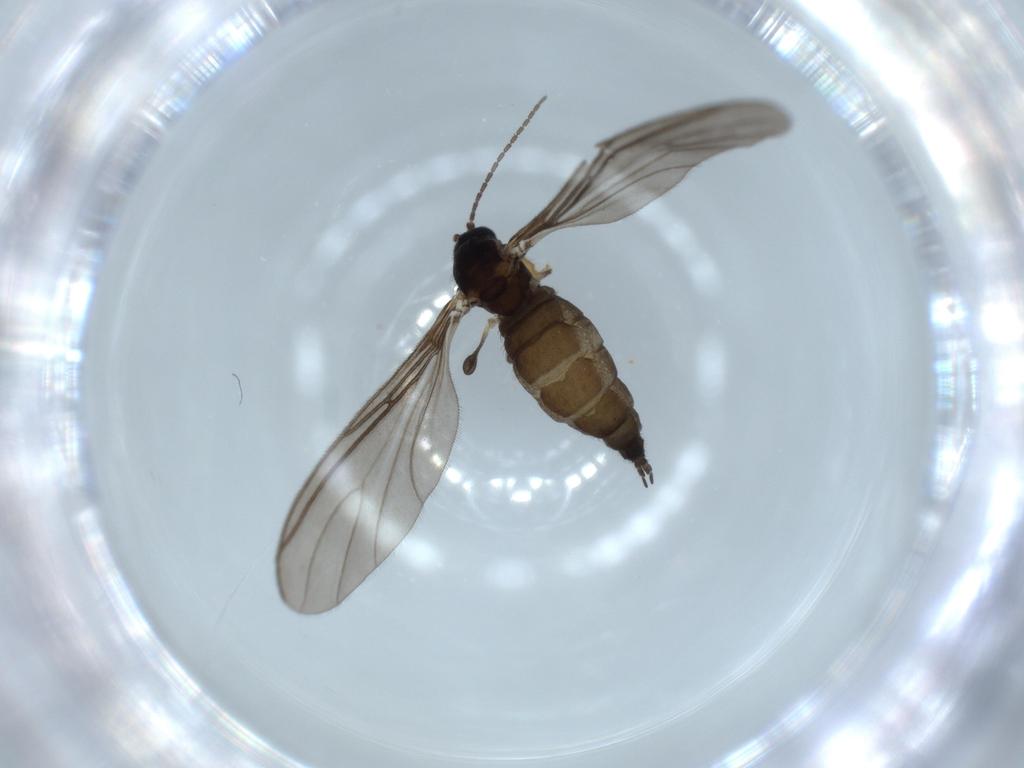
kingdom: Animalia
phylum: Arthropoda
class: Insecta
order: Diptera
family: Sciaridae
